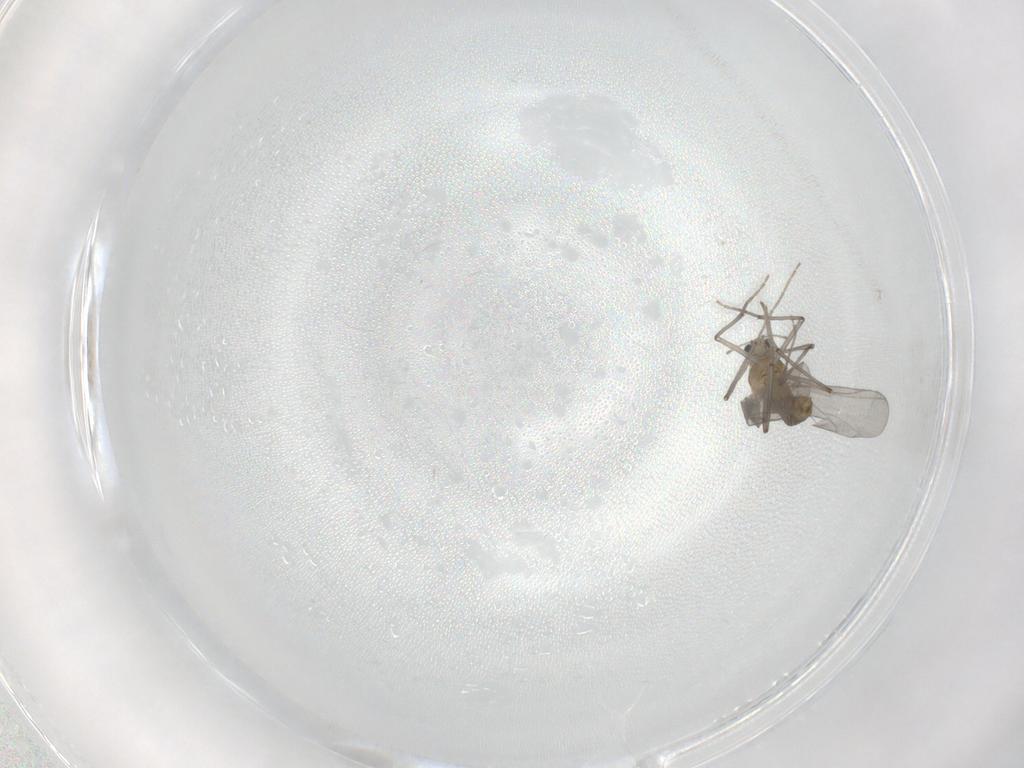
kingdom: Animalia
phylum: Arthropoda
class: Insecta
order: Diptera
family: Chironomidae
